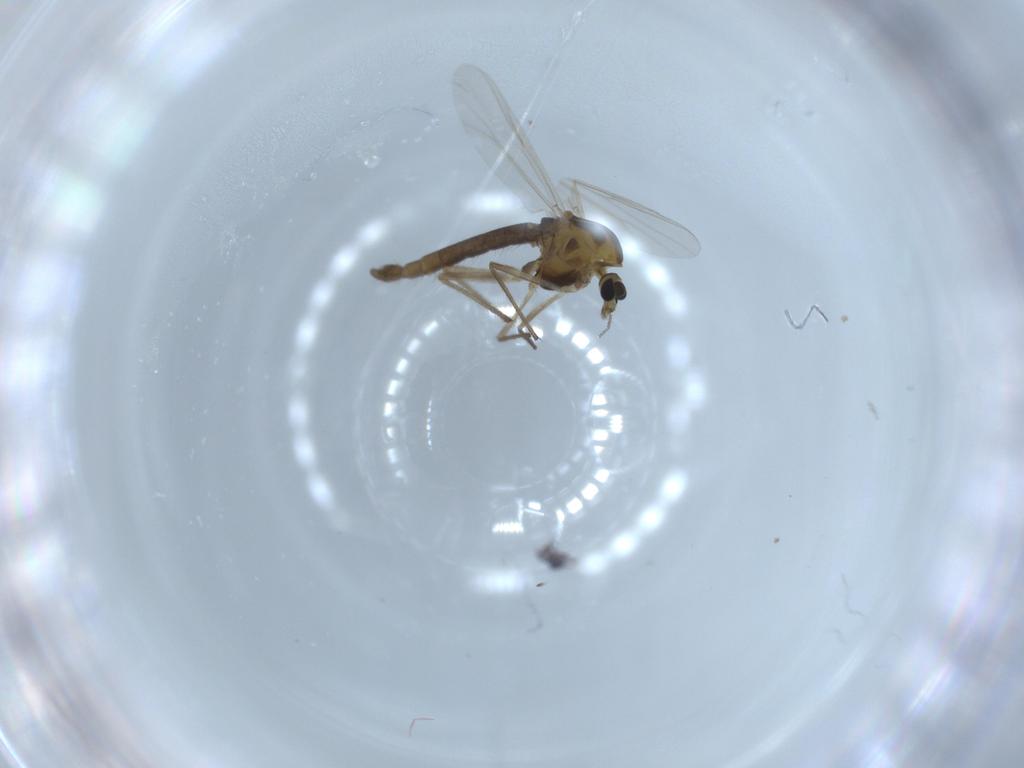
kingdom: Animalia
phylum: Arthropoda
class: Insecta
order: Diptera
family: Chironomidae
